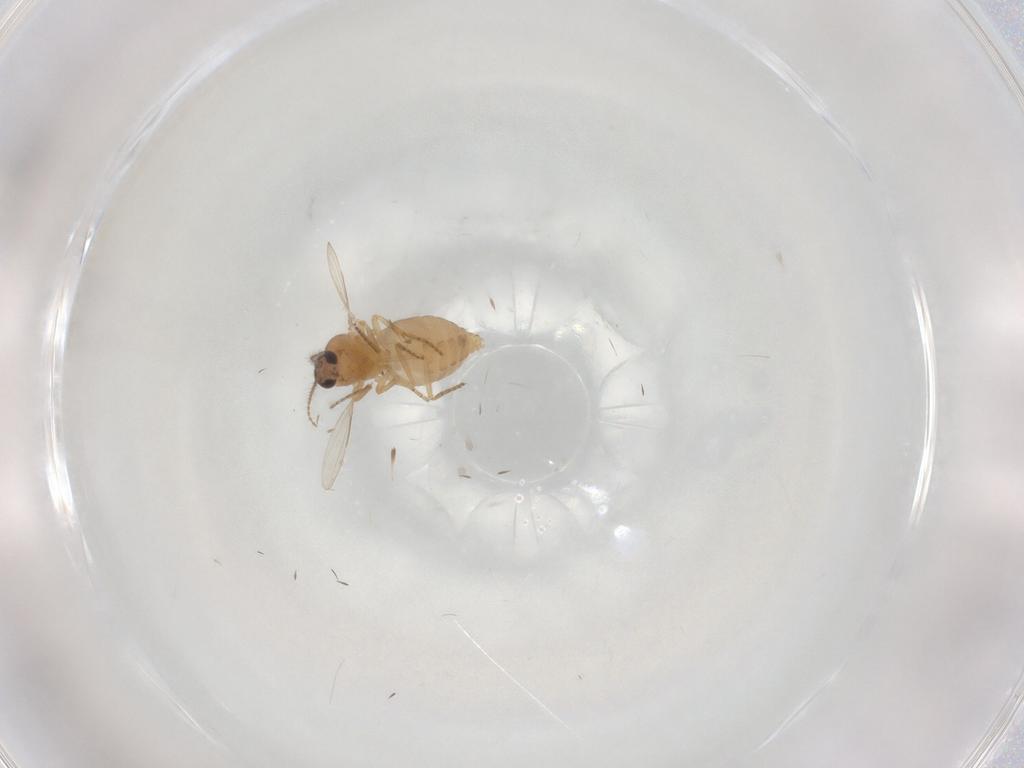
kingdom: Animalia
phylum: Arthropoda
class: Insecta
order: Diptera
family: Ceratopogonidae
